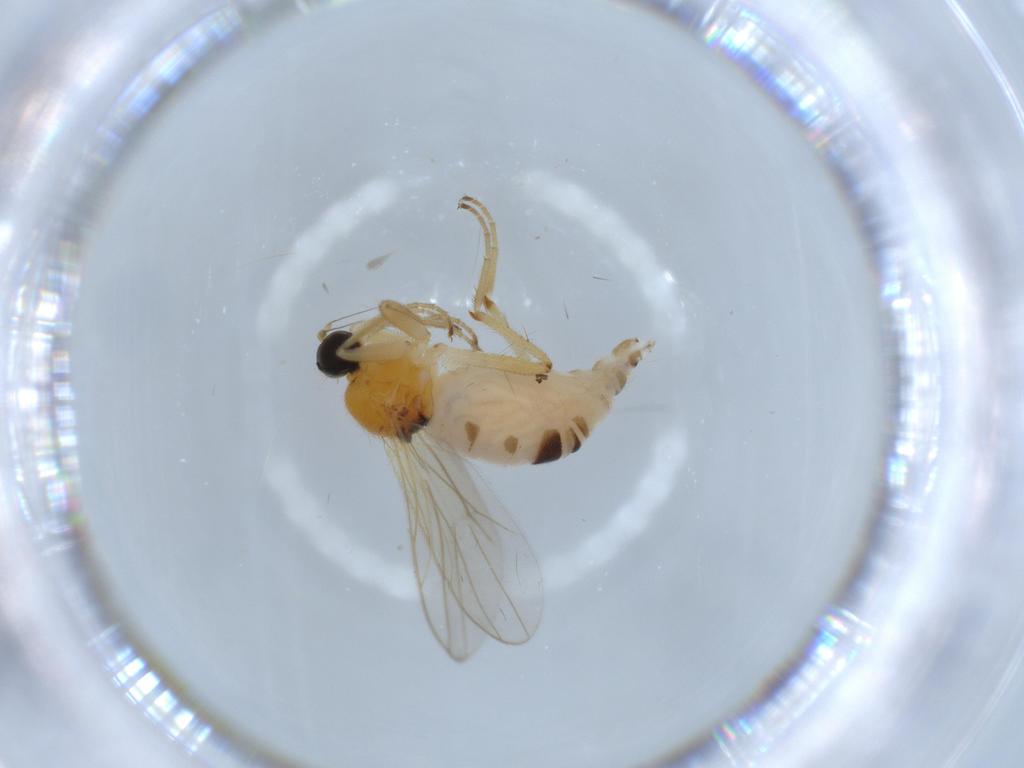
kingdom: Animalia
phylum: Arthropoda
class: Insecta
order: Diptera
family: Hybotidae
